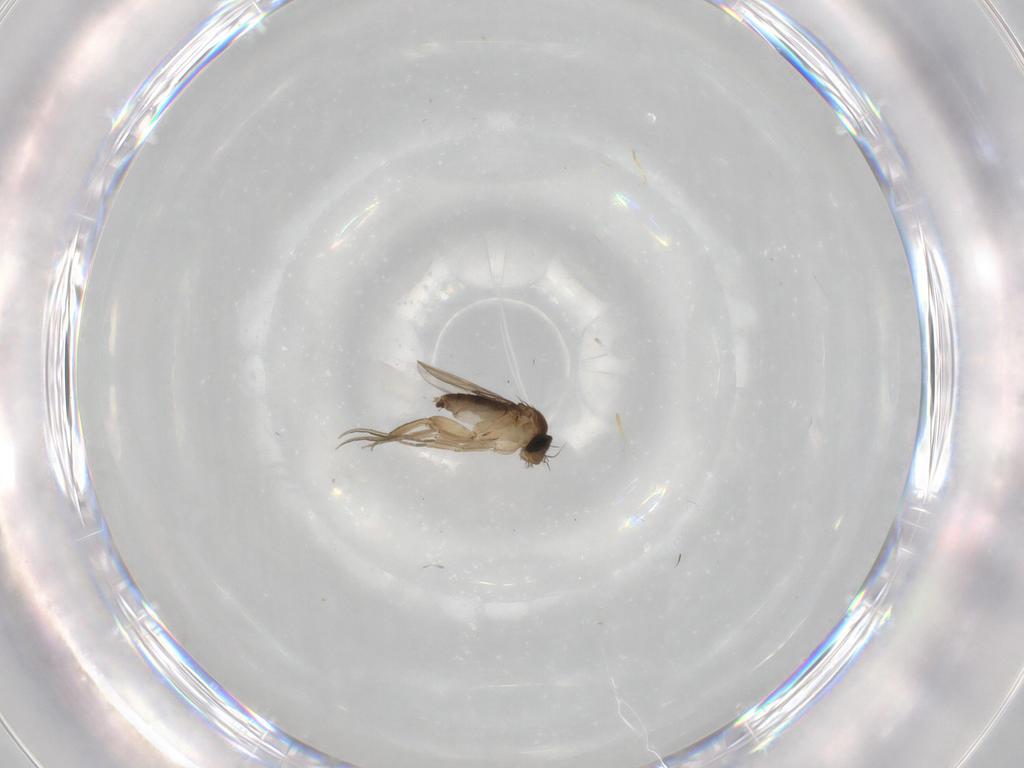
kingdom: Animalia
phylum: Arthropoda
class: Insecta
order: Diptera
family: Phoridae
